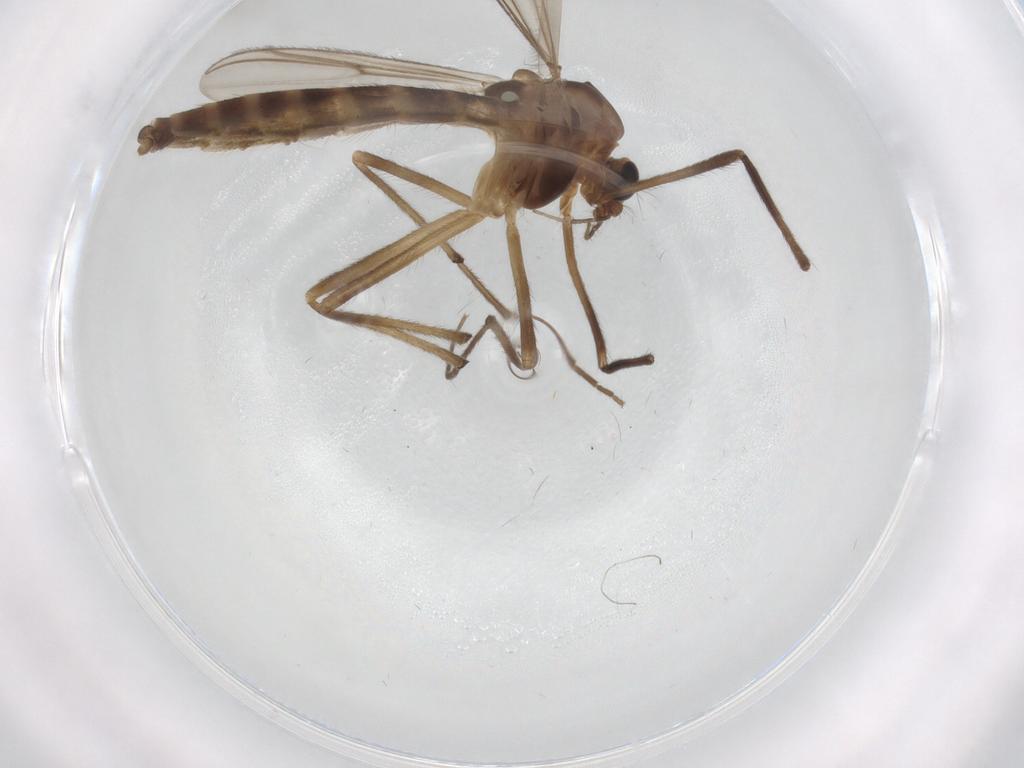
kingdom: Animalia
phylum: Arthropoda
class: Insecta
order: Diptera
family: Chironomidae
